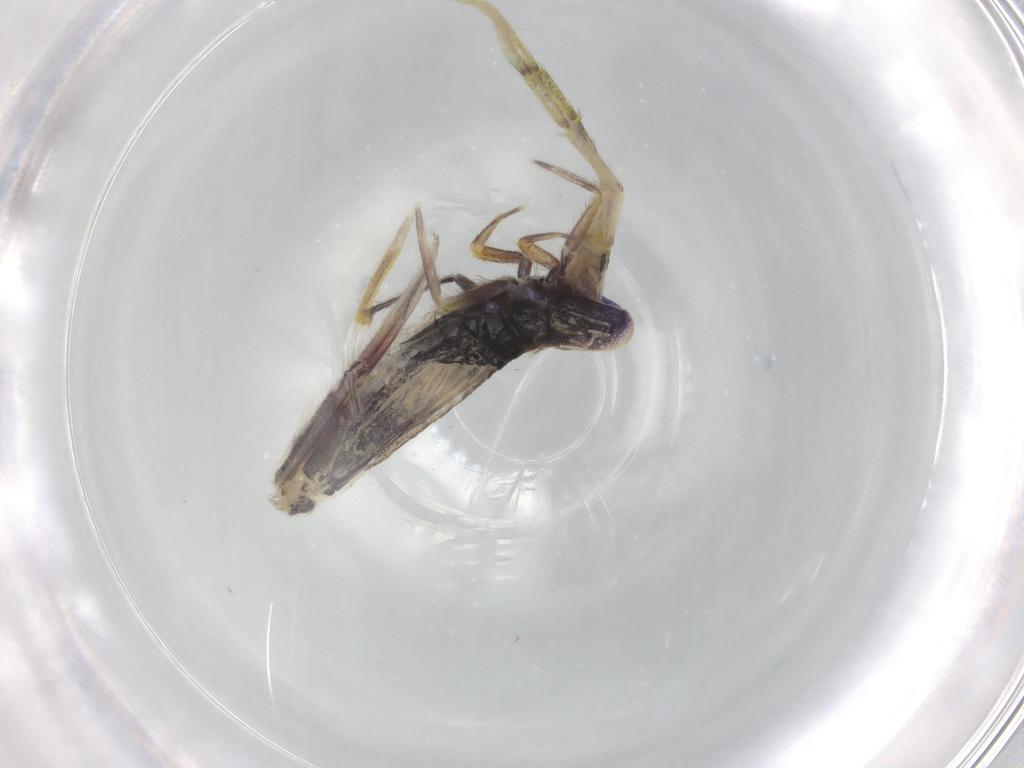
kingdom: Animalia
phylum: Arthropoda
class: Collembola
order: Entomobryomorpha
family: Entomobryidae
